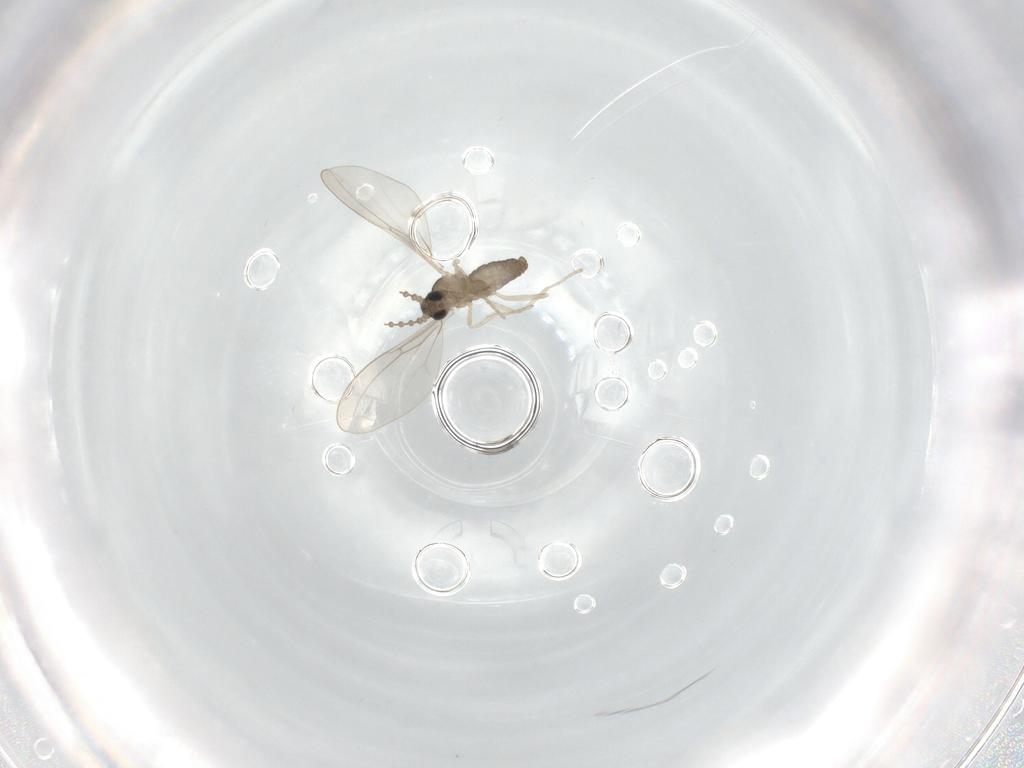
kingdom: Animalia
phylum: Arthropoda
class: Insecta
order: Diptera
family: Cecidomyiidae
